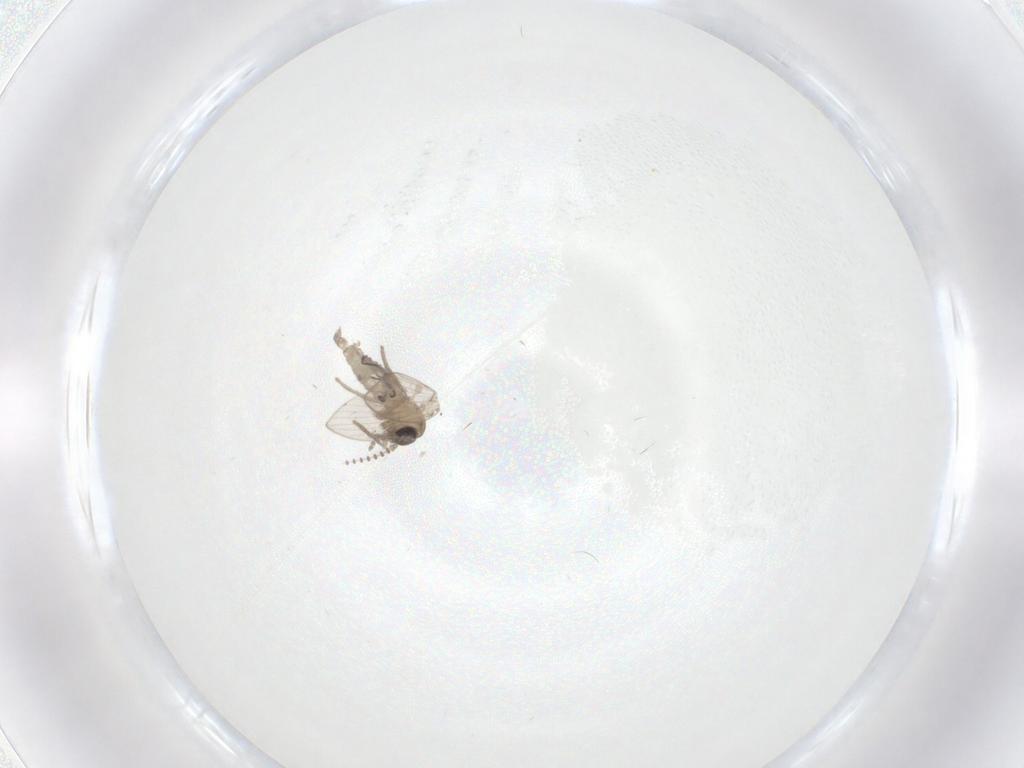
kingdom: Animalia
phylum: Arthropoda
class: Insecta
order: Diptera
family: Psychodidae
